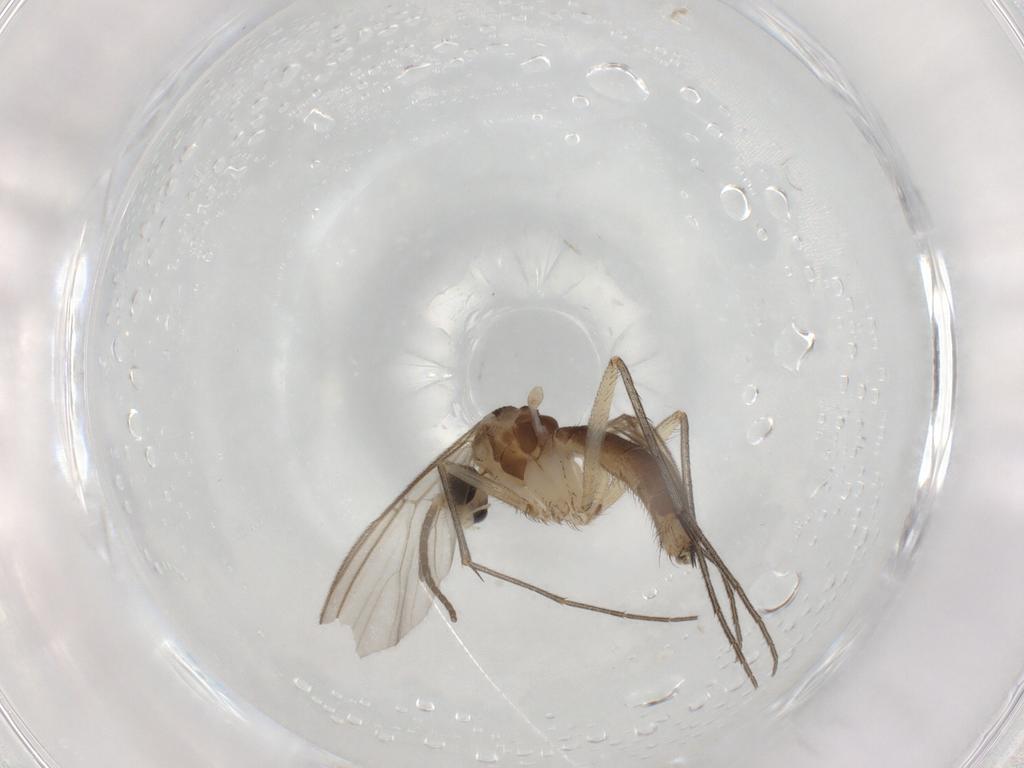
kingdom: Animalia
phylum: Arthropoda
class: Insecta
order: Diptera
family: Mycetophilidae
